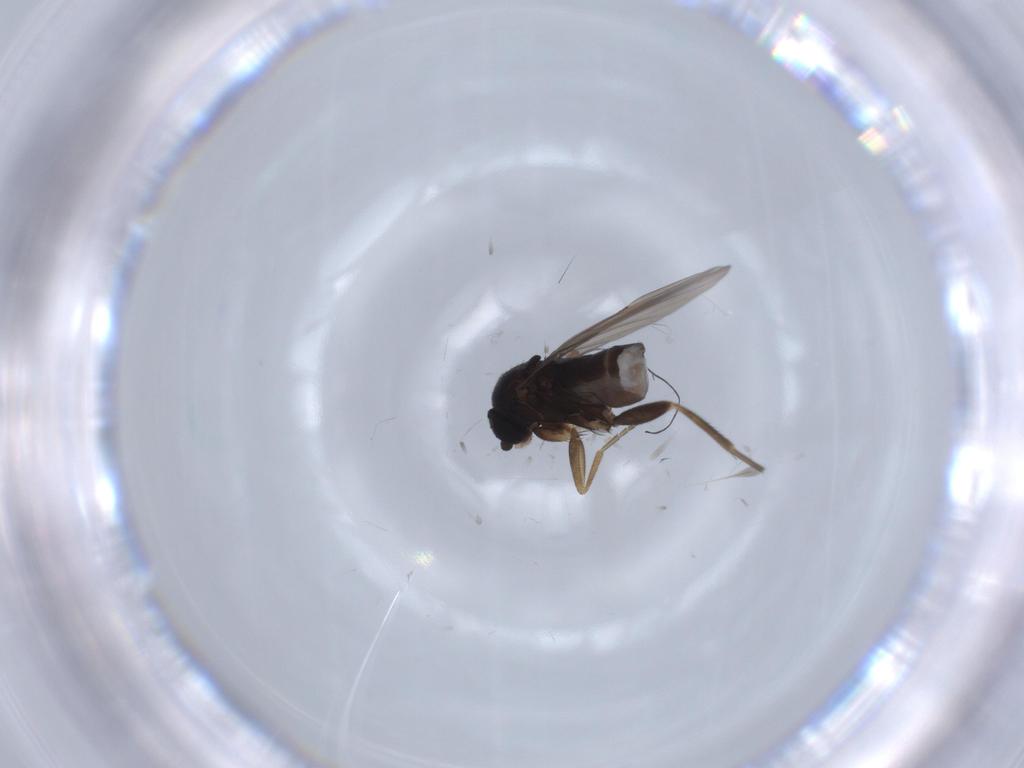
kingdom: Animalia
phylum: Arthropoda
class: Insecta
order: Diptera
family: Phoridae
